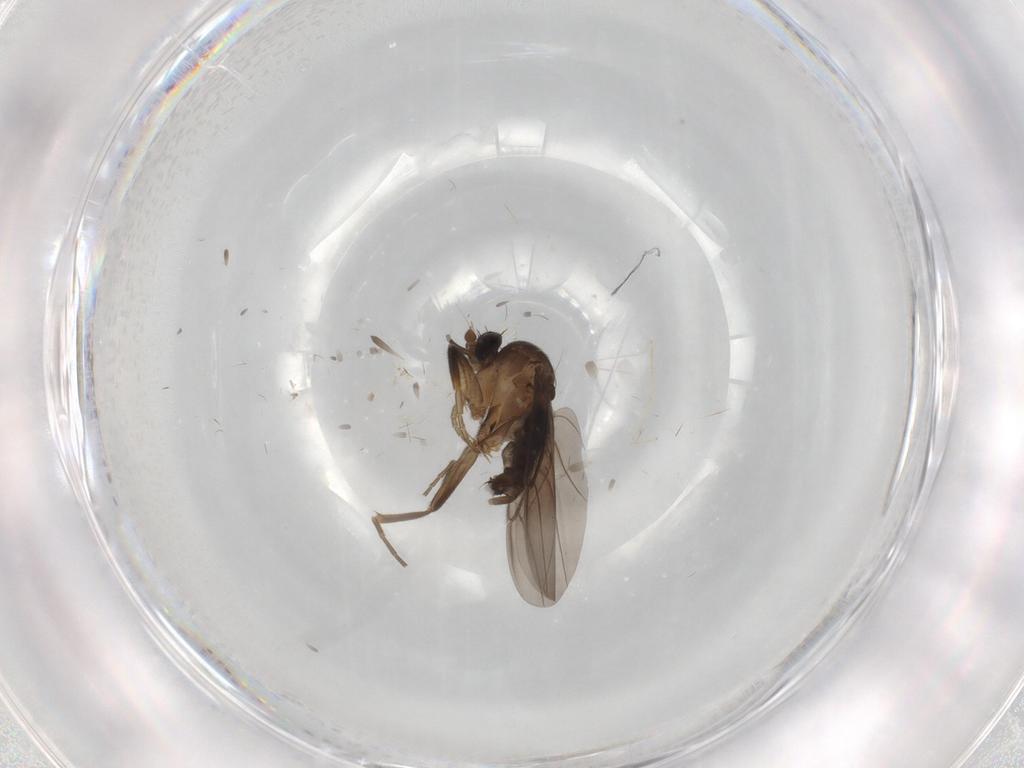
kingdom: Animalia
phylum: Arthropoda
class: Insecta
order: Diptera
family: Phoridae
